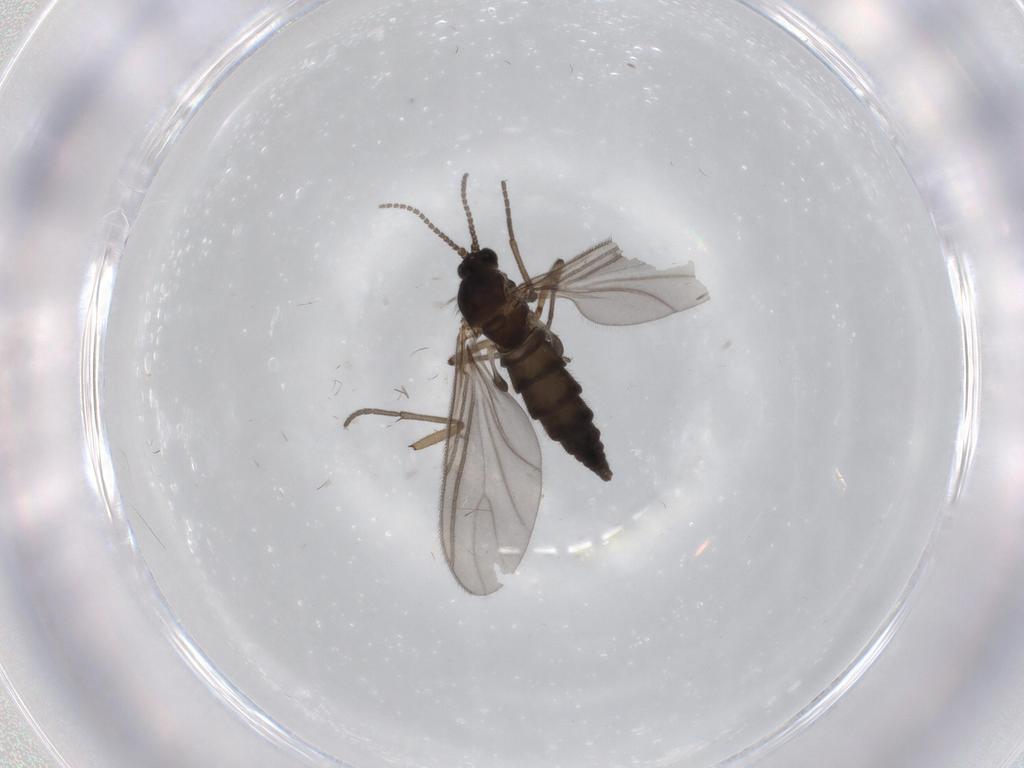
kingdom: Animalia
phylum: Arthropoda
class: Insecta
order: Diptera
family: Sciaridae
